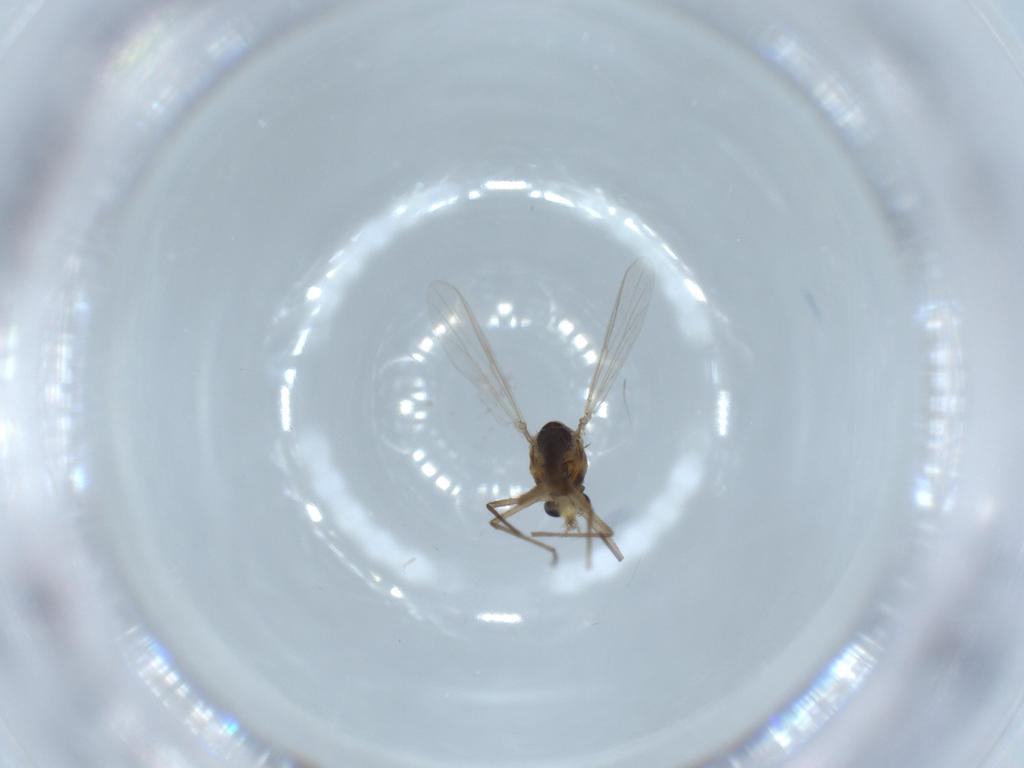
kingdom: Animalia
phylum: Arthropoda
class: Insecta
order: Diptera
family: Chironomidae
